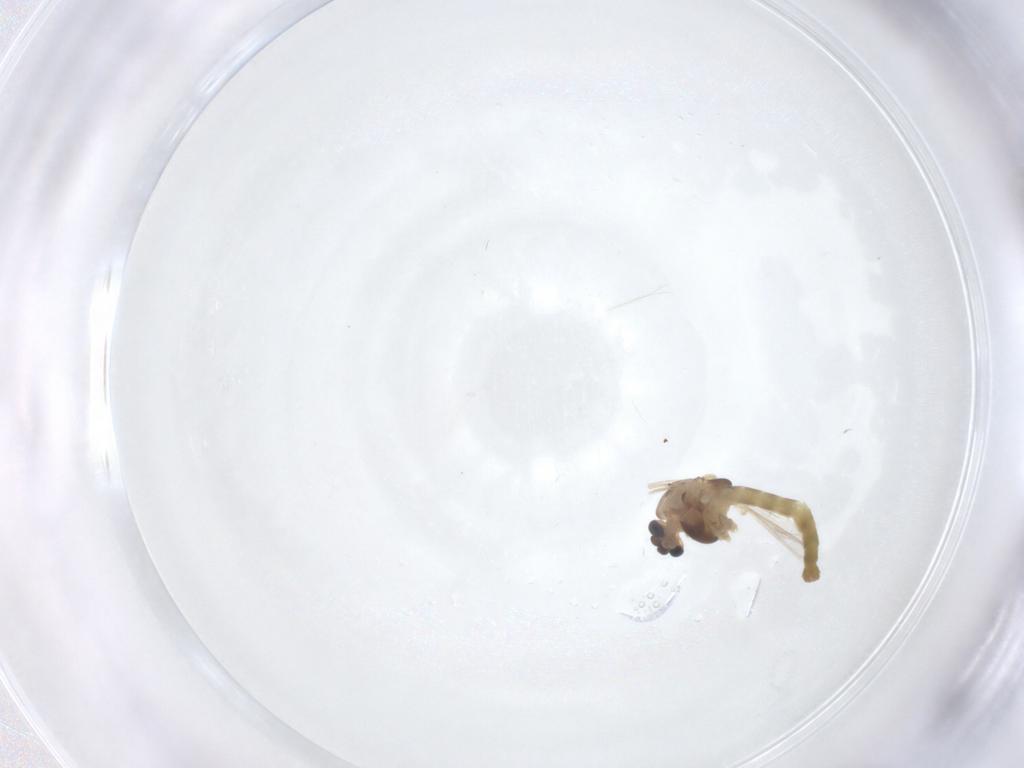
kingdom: Animalia
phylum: Arthropoda
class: Insecta
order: Diptera
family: Chironomidae
